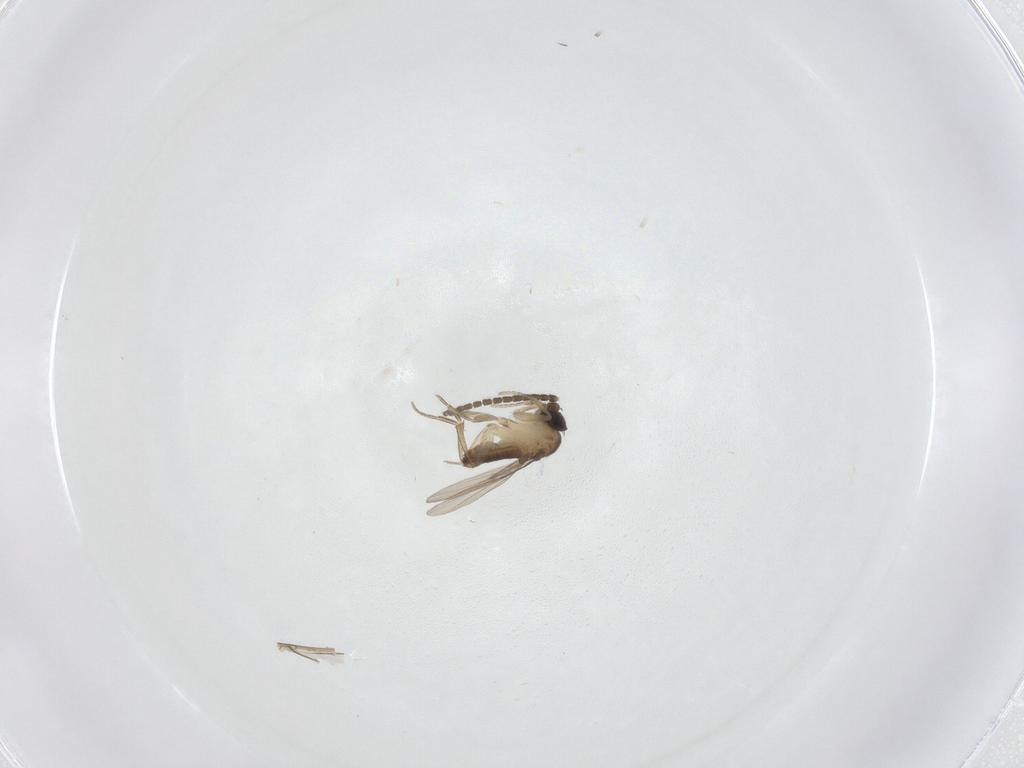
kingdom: Animalia
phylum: Arthropoda
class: Insecta
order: Diptera
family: Sciaridae
